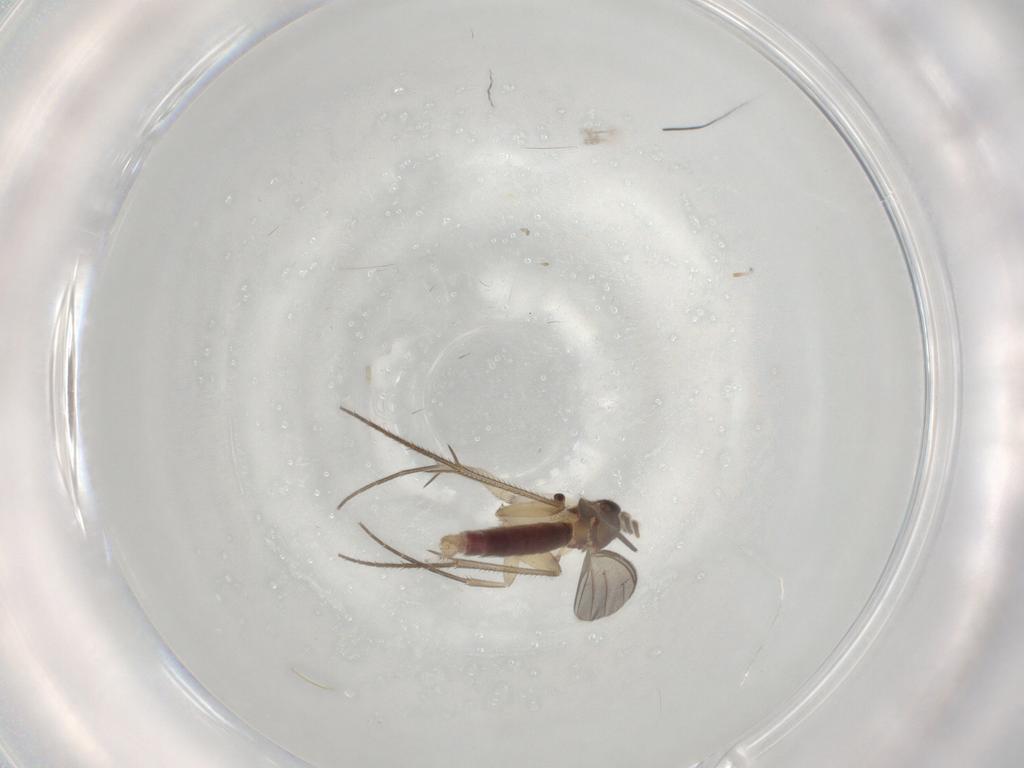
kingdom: Animalia
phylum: Arthropoda
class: Insecta
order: Diptera
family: Mycetophilidae
